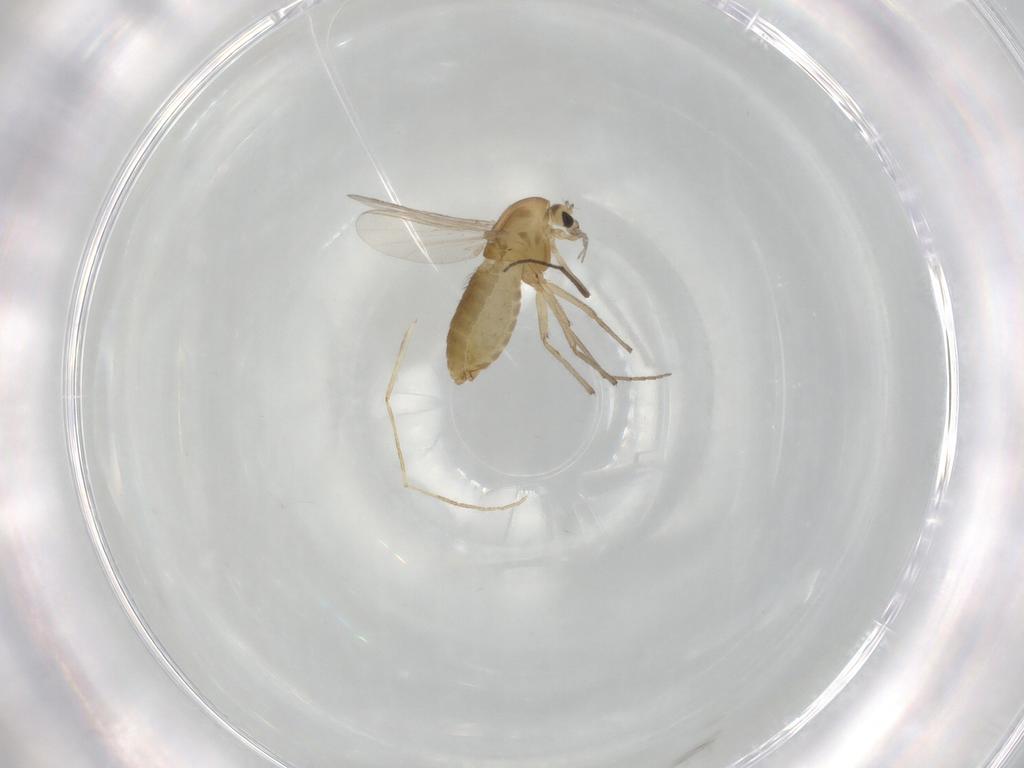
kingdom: Animalia
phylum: Arthropoda
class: Insecta
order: Diptera
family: Chironomidae
